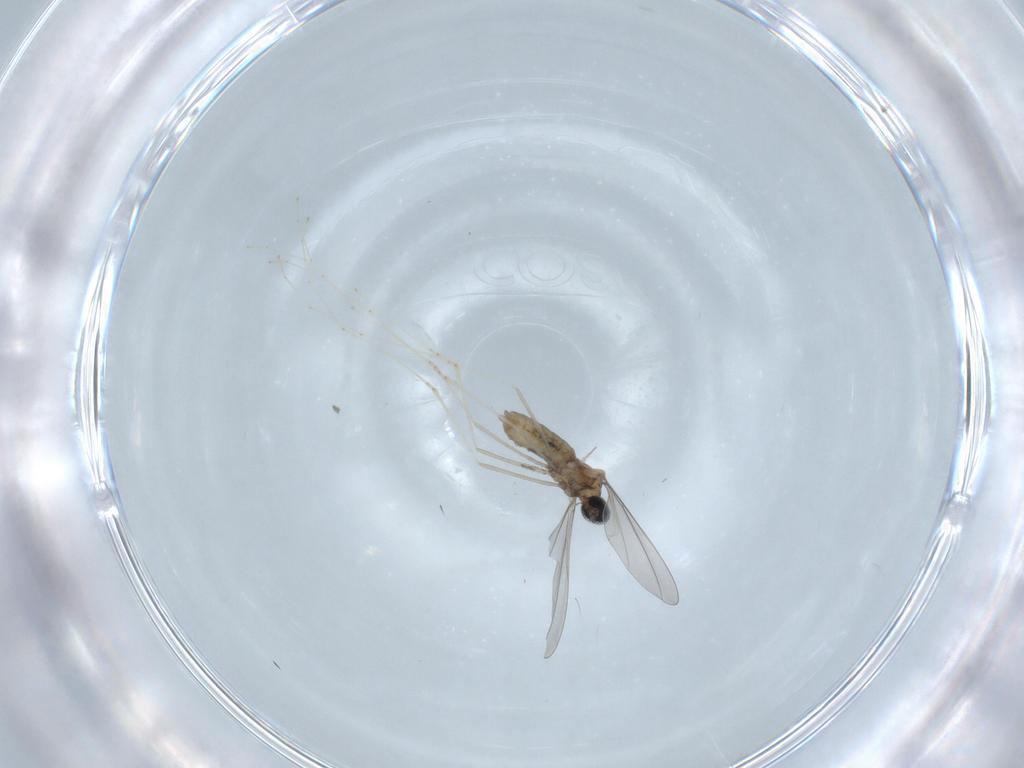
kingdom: Animalia
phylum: Arthropoda
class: Insecta
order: Diptera
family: Cecidomyiidae
